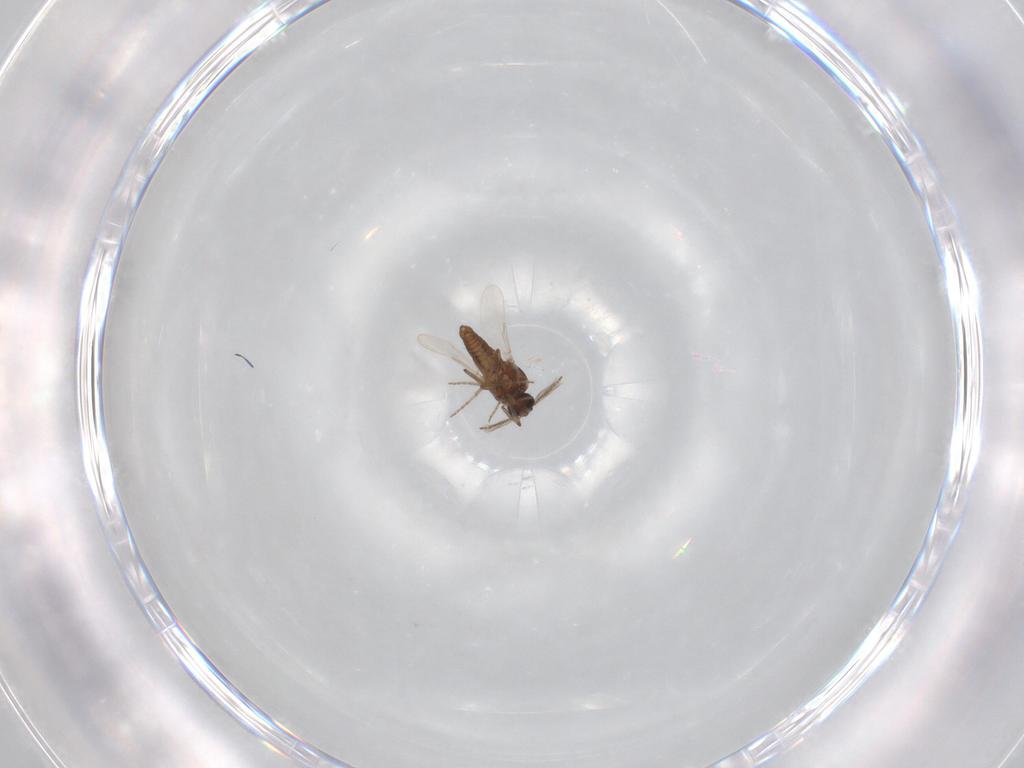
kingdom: Animalia
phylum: Arthropoda
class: Insecta
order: Diptera
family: Ceratopogonidae
